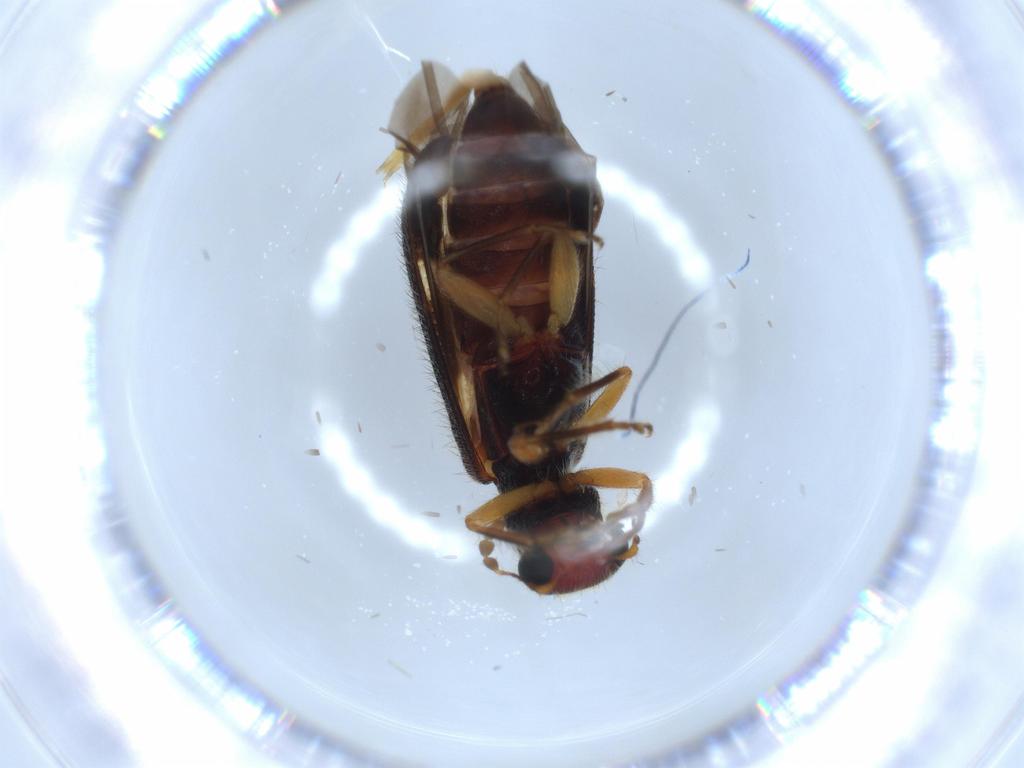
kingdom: Animalia
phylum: Arthropoda
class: Insecta
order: Coleoptera
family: Cleridae
